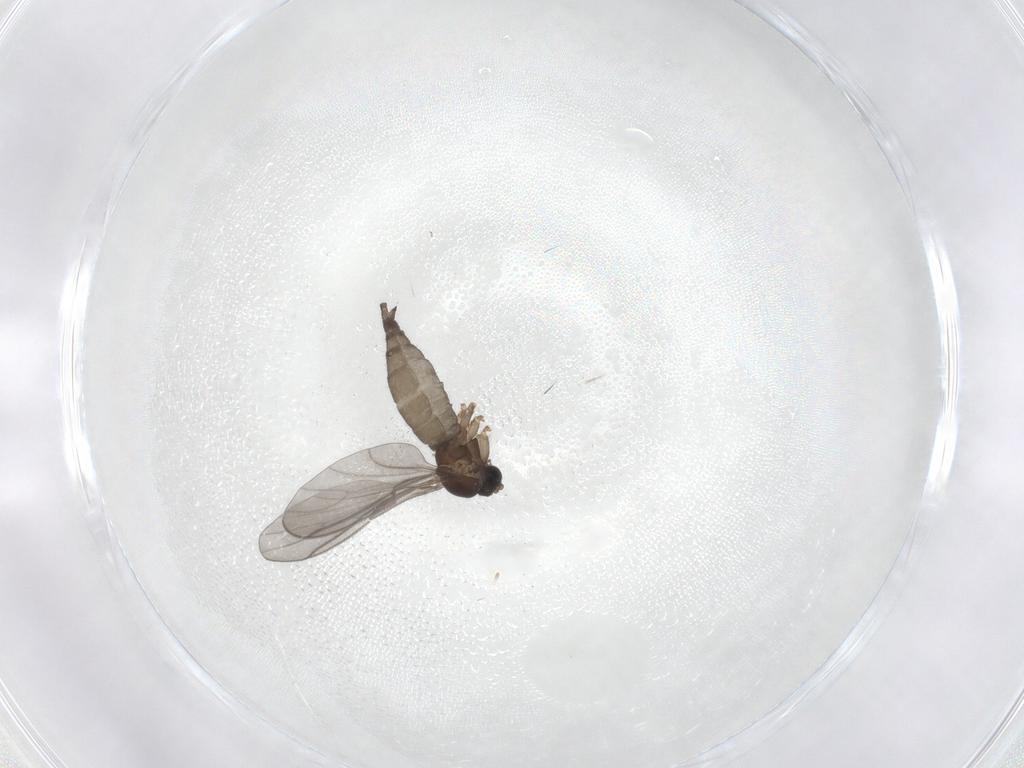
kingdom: Animalia
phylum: Arthropoda
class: Insecta
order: Diptera
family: Sciaridae
